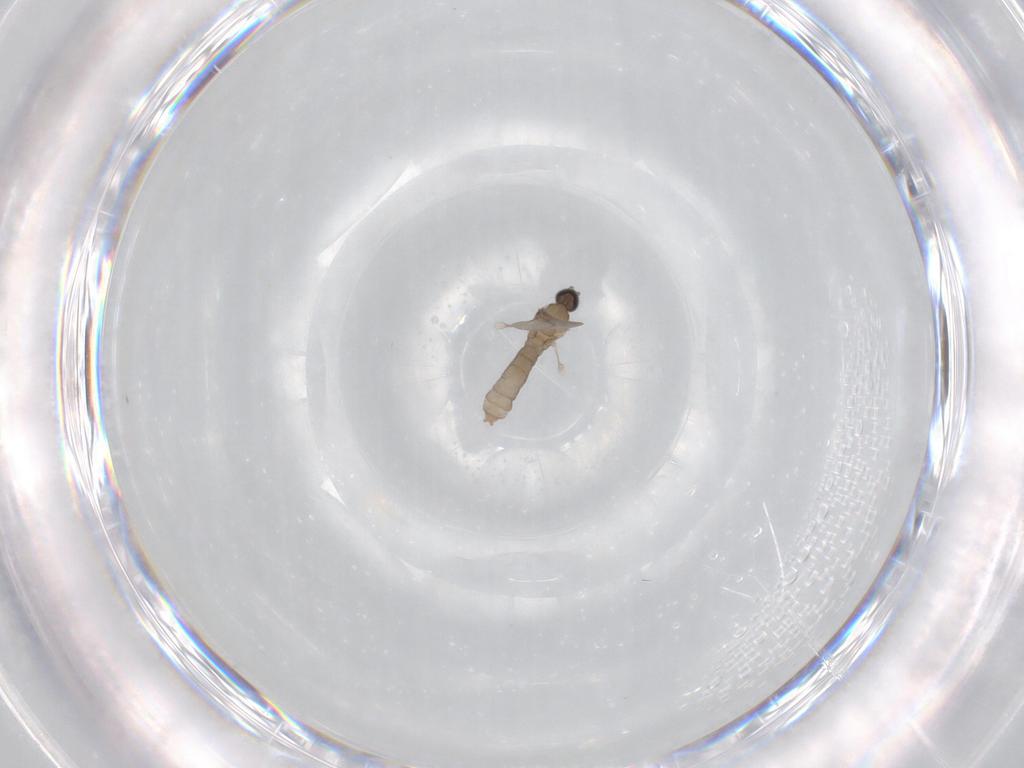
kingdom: Animalia
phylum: Arthropoda
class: Insecta
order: Diptera
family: Cecidomyiidae
